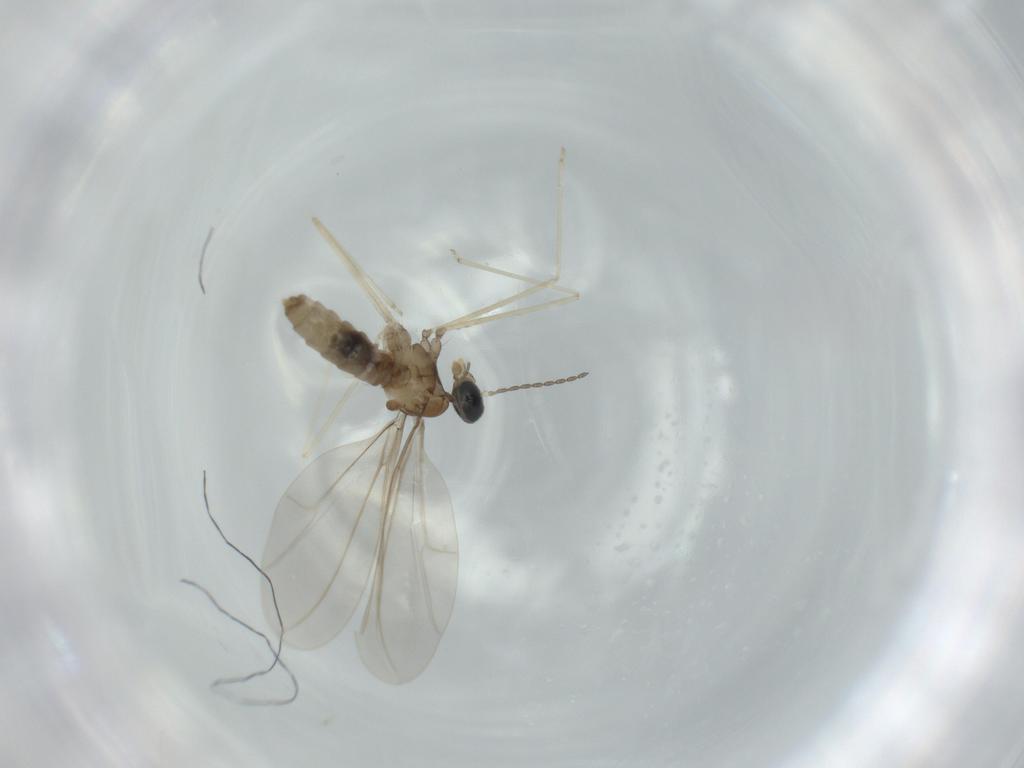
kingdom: Animalia
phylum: Arthropoda
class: Insecta
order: Diptera
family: Cecidomyiidae
